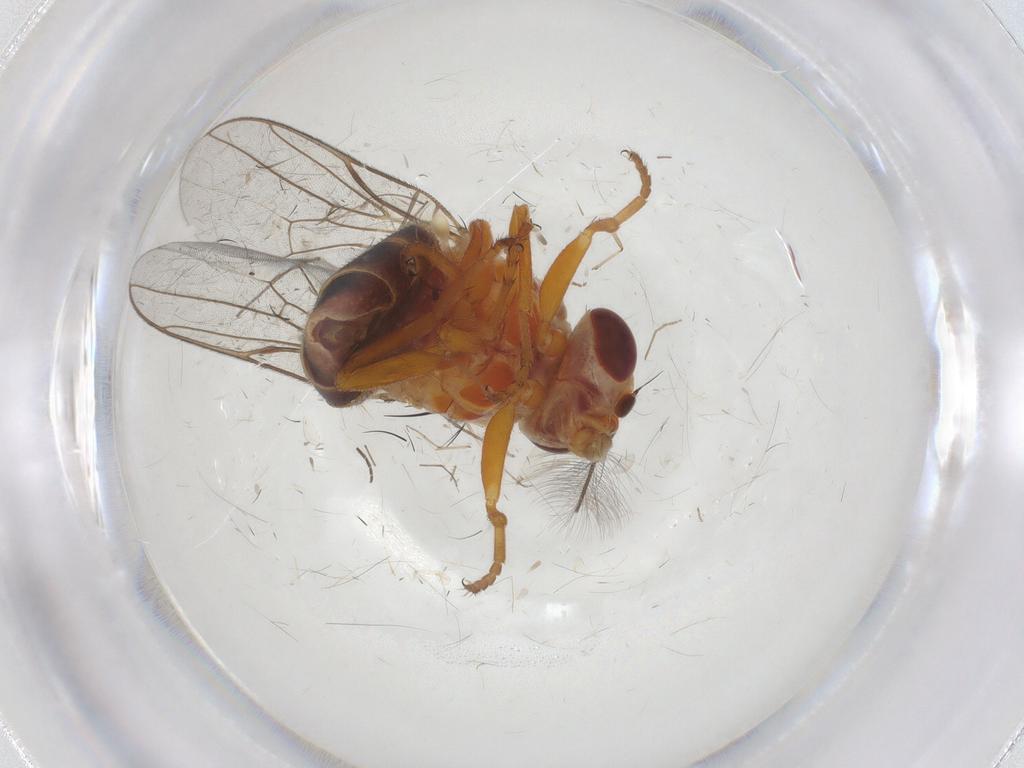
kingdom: Animalia
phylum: Arthropoda
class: Insecta
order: Diptera
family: Chloropidae
